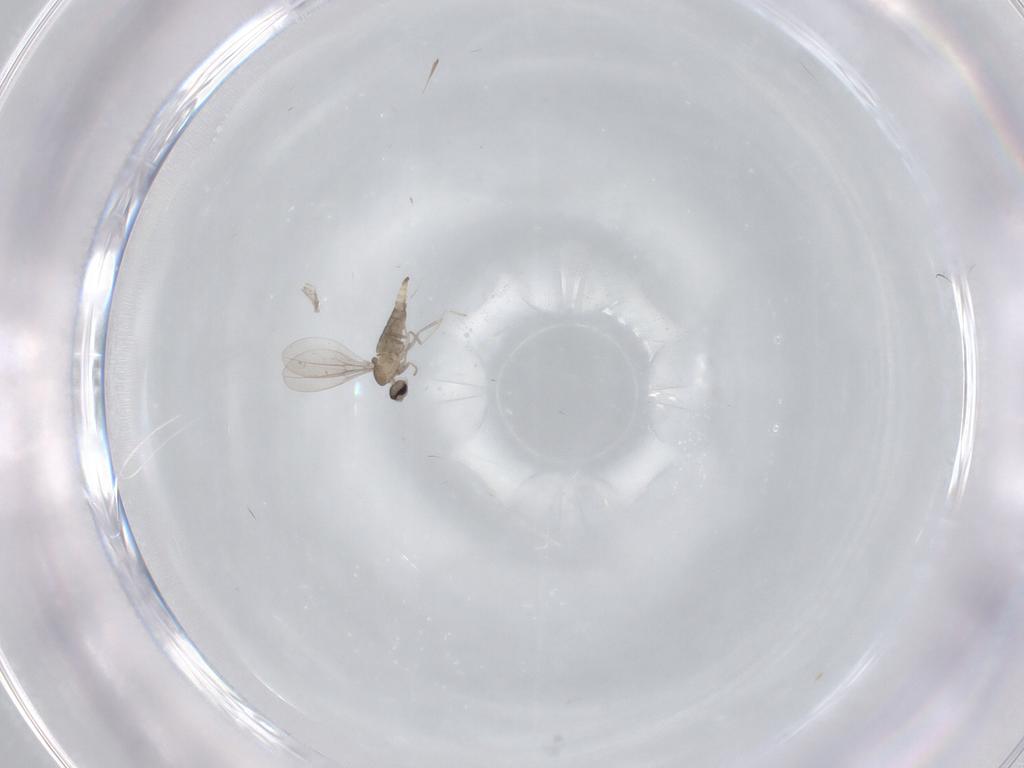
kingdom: Animalia
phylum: Arthropoda
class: Insecta
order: Diptera
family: Cecidomyiidae
